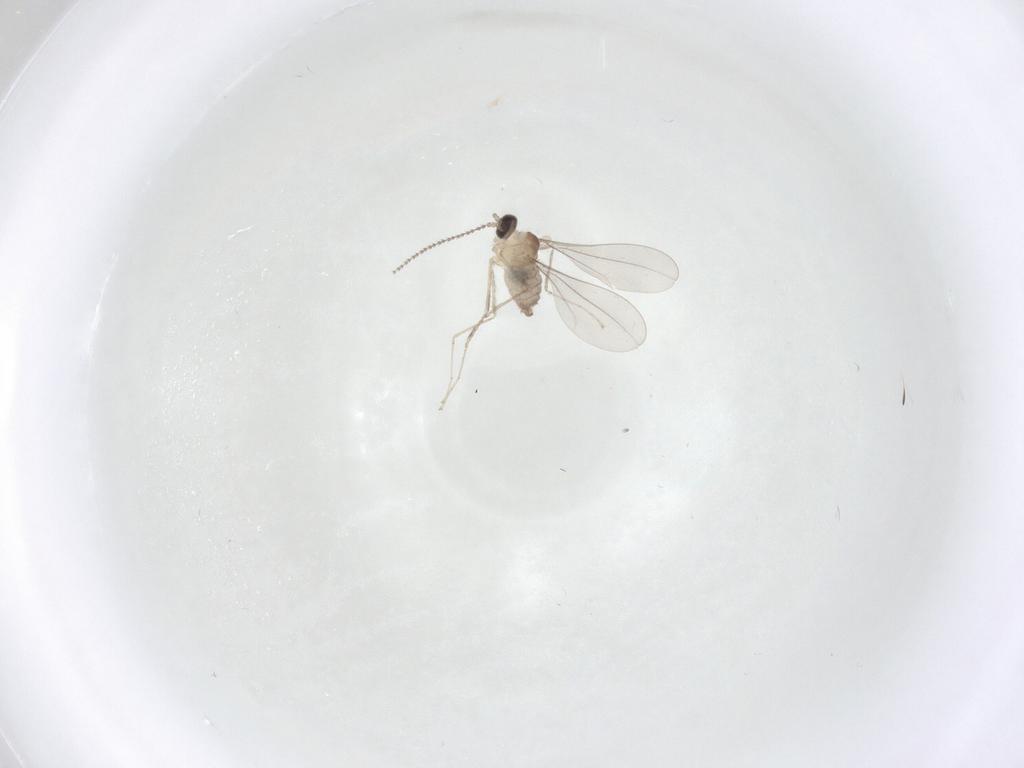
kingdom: Animalia
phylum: Arthropoda
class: Insecta
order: Diptera
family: Cecidomyiidae
